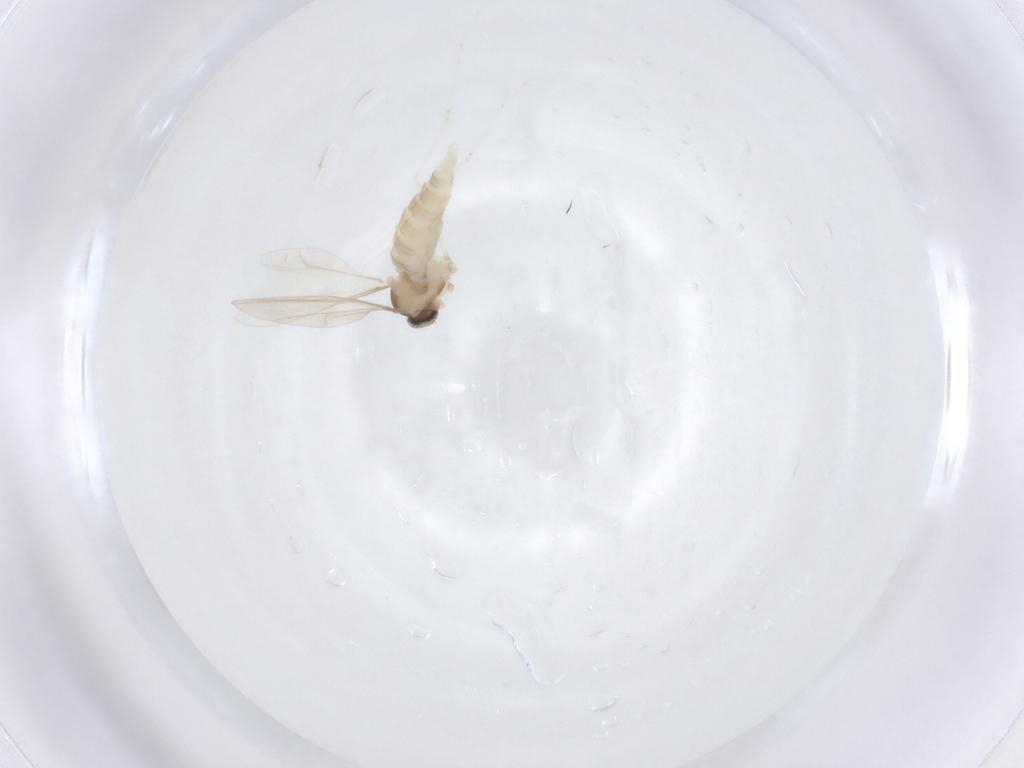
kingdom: Animalia
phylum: Arthropoda
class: Insecta
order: Diptera
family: Cecidomyiidae
